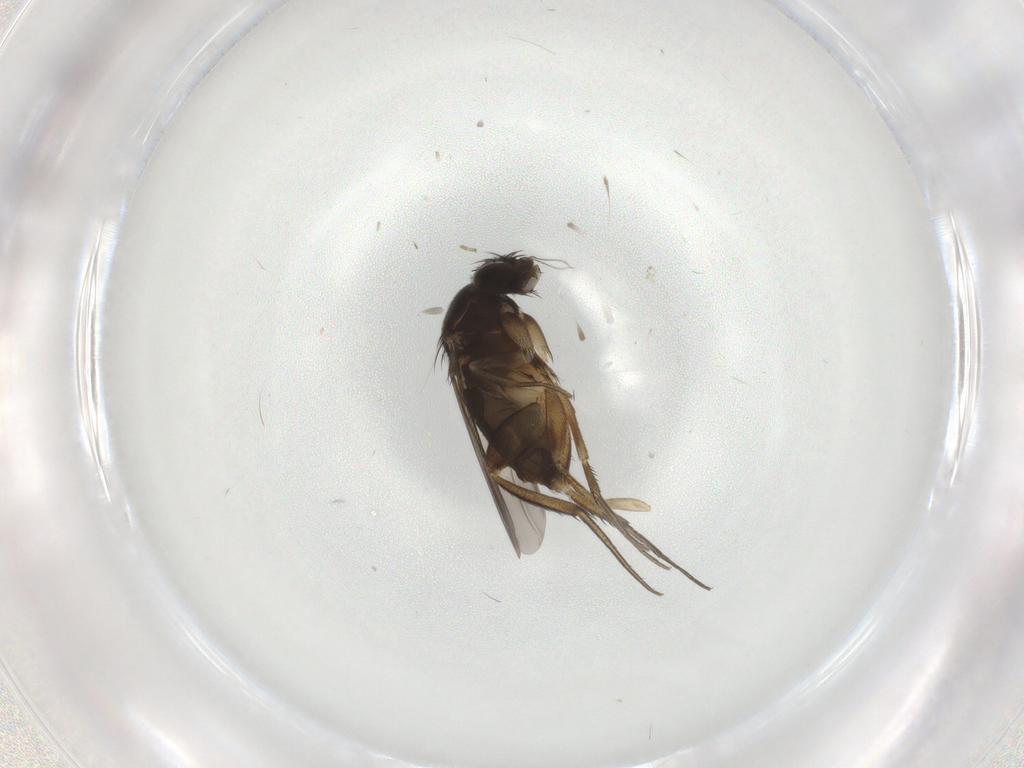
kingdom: Animalia
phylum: Arthropoda
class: Insecta
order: Diptera
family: Phoridae
